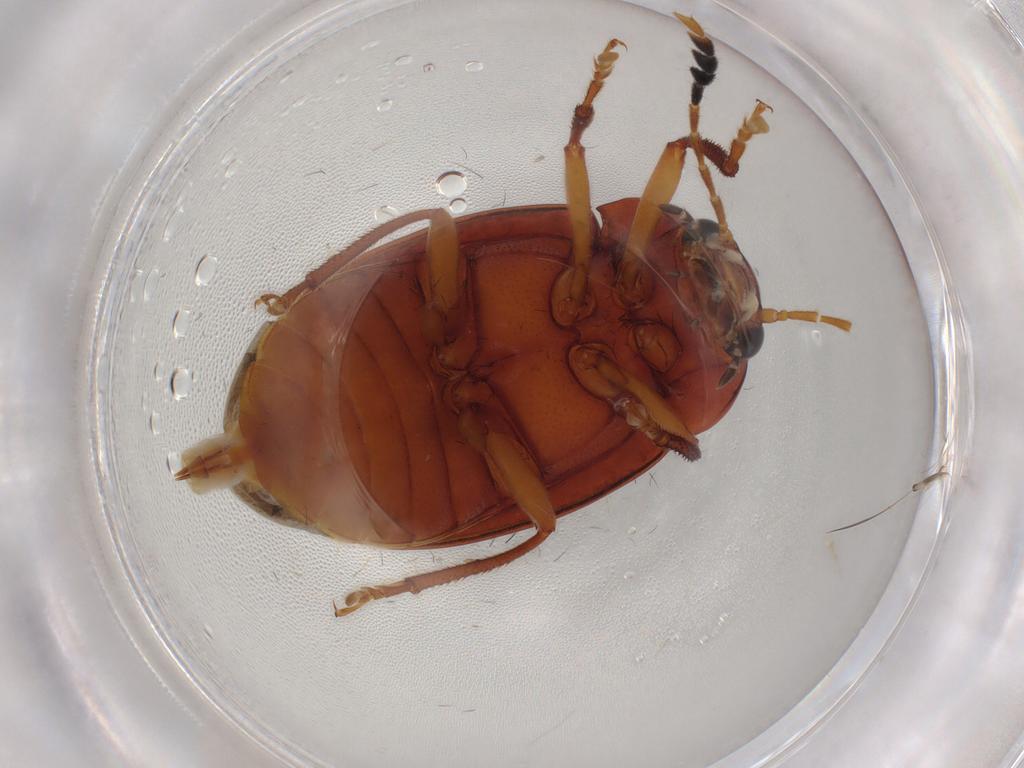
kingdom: Animalia
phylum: Arthropoda
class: Insecta
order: Coleoptera
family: Ptilodactylidae
